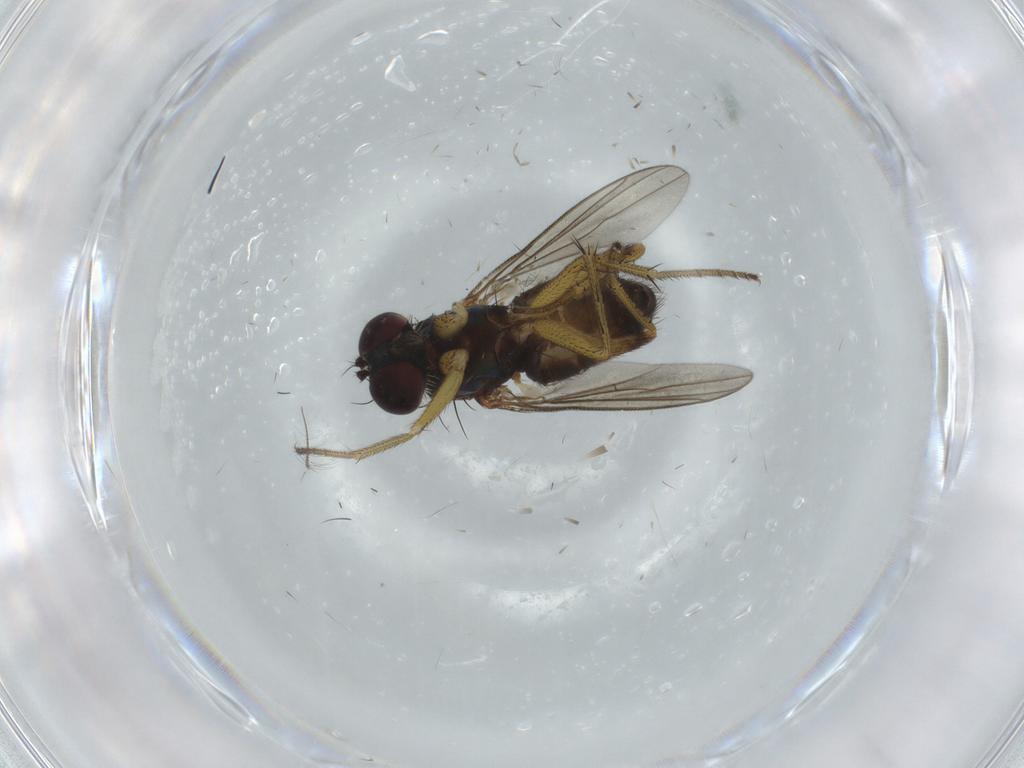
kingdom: Animalia
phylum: Arthropoda
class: Insecta
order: Diptera
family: Dolichopodidae
